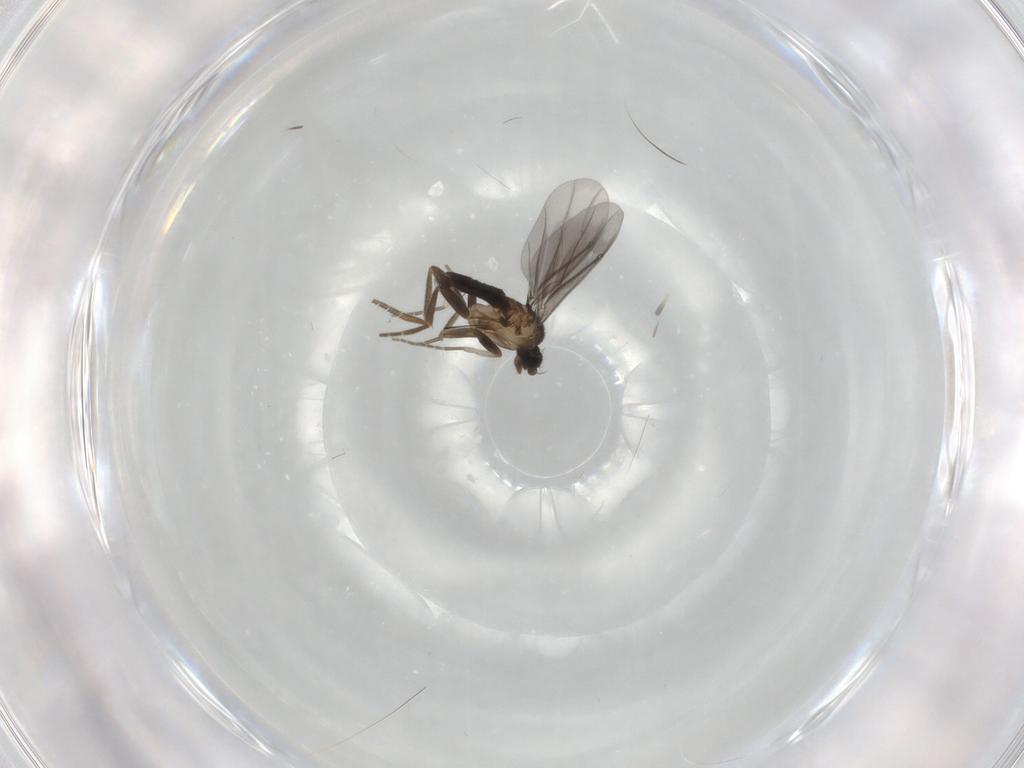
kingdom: Animalia
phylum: Arthropoda
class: Insecta
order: Diptera
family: Phoridae
